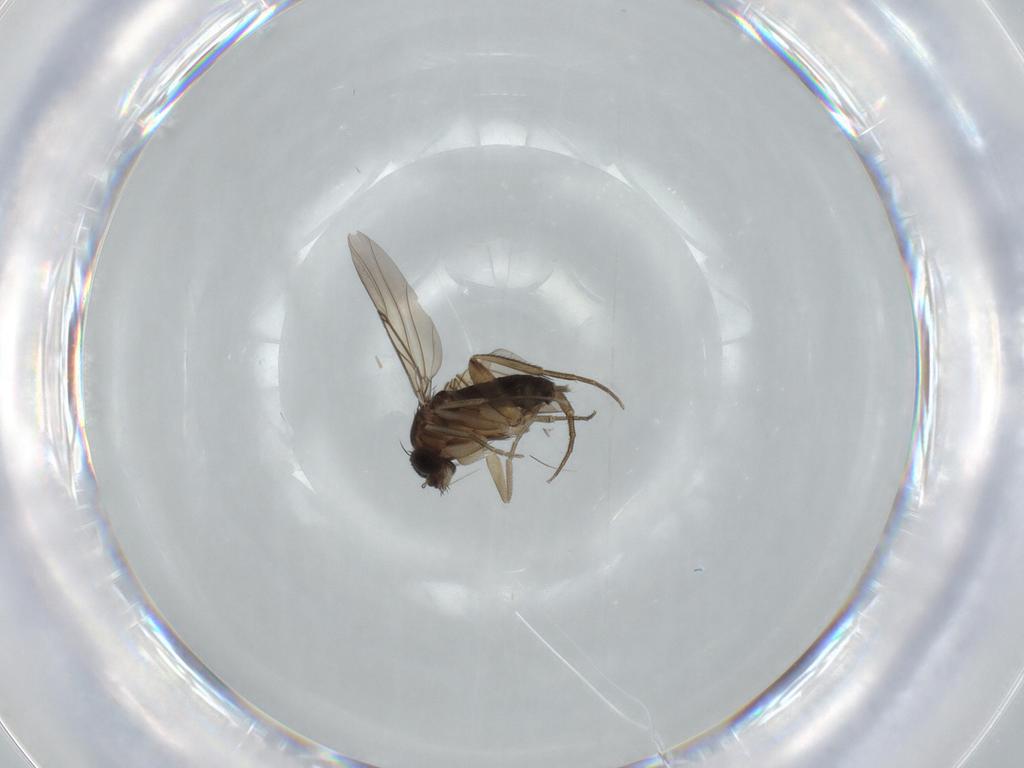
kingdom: Animalia
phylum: Arthropoda
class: Insecta
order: Diptera
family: Phoridae
